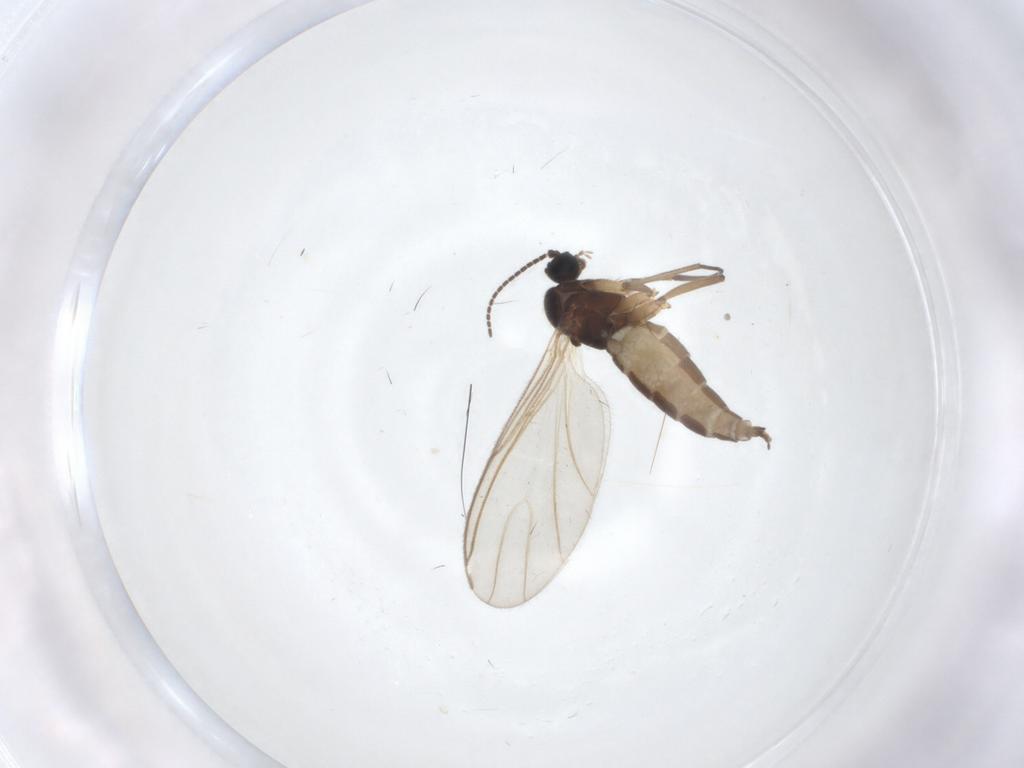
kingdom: Animalia
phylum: Arthropoda
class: Insecta
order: Diptera
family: Sciaridae
